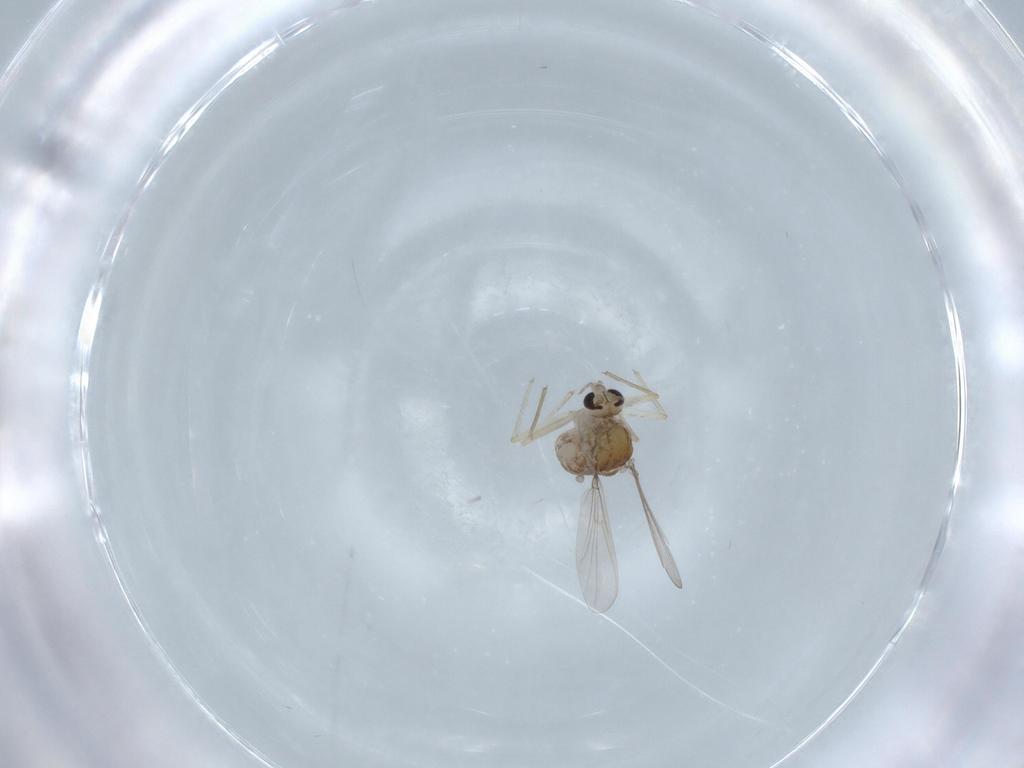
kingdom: Animalia
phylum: Arthropoda
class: Insecta
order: Diptera
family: Chironomidae
